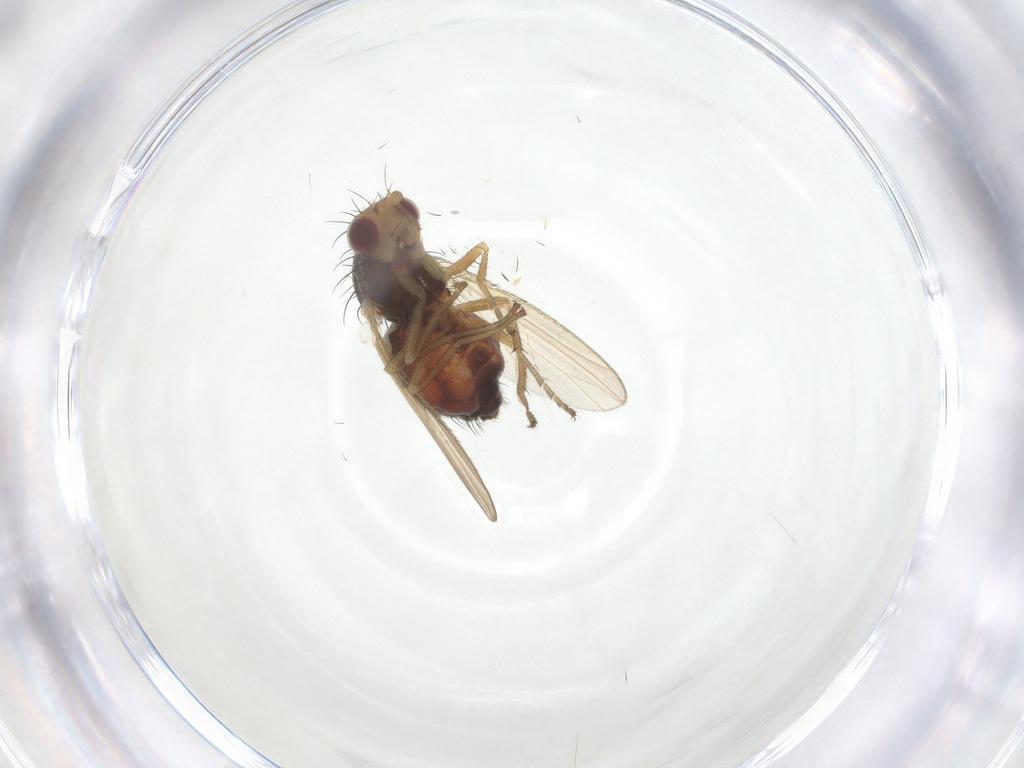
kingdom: Animalia
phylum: Arthropoda
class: Insecta
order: Diptera
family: Heleomyzidae
